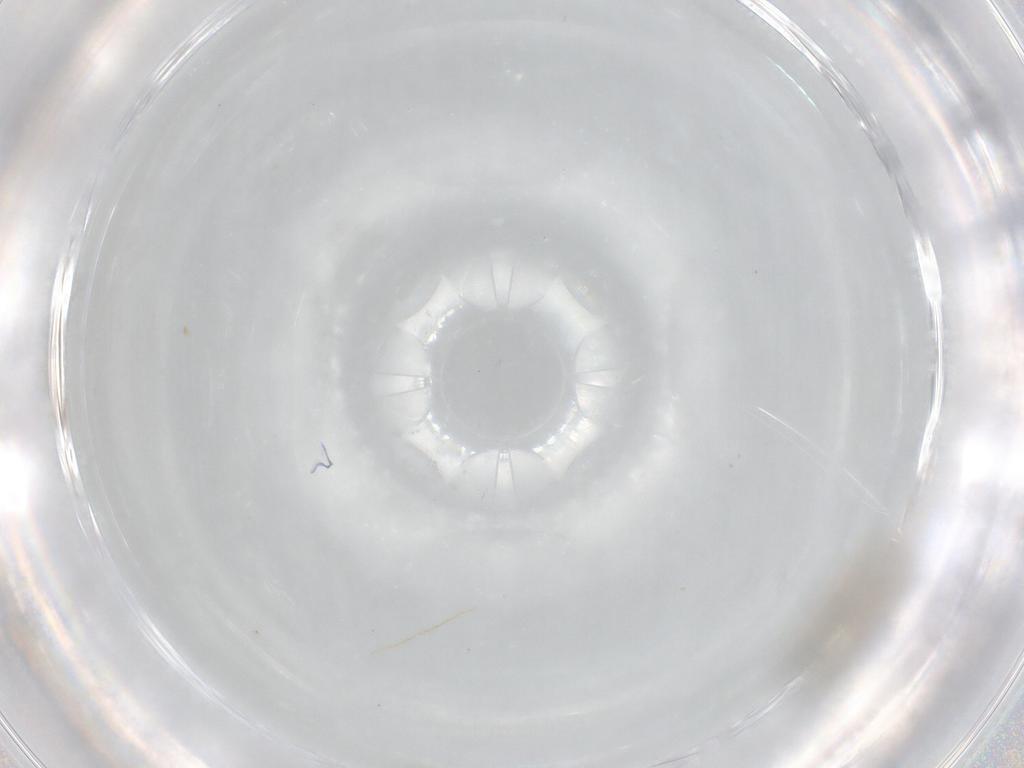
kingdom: Animalia
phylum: Arthropoda
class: Insecta
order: Diptera
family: Cecidomyiidae
